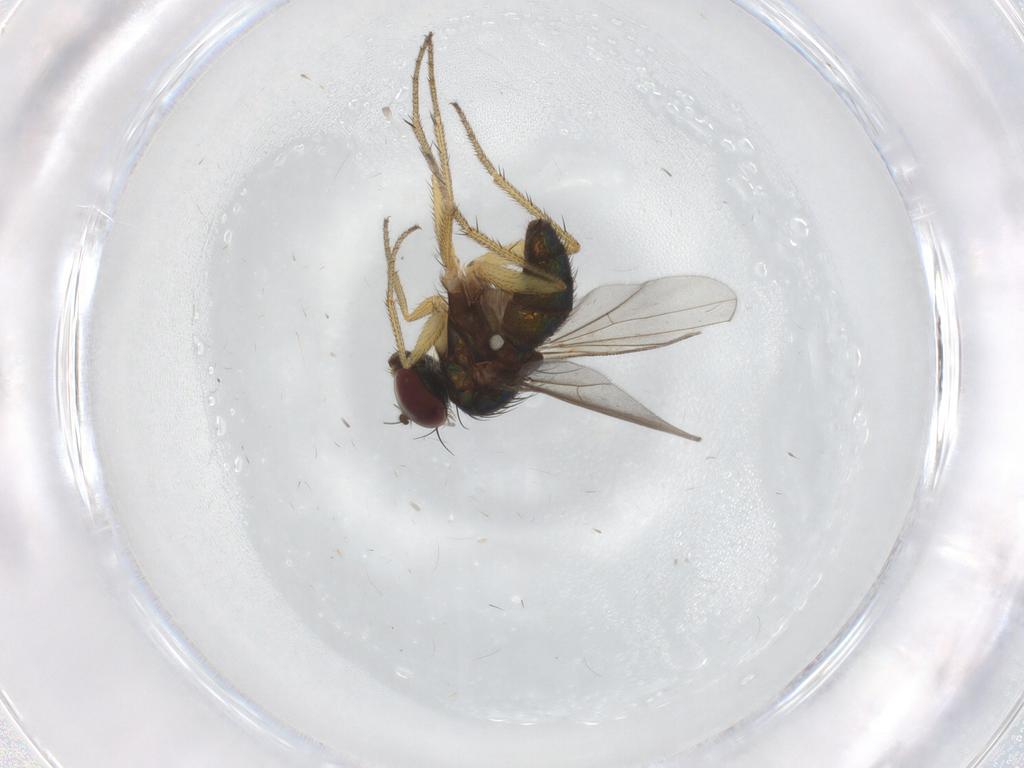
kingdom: Animalia
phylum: Arthropoda
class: Insecta
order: Diptera
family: Dolichopodidae
